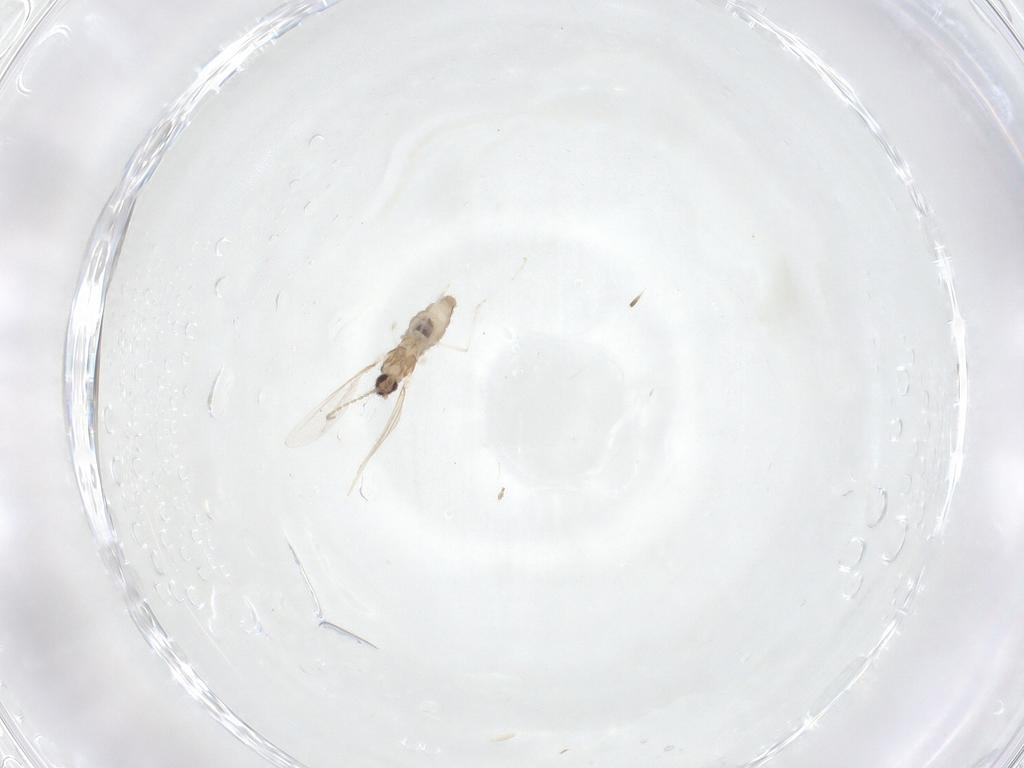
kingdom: Animalia
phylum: Arthropoda
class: Insecta
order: Diptera
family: Cecidomyiidae
